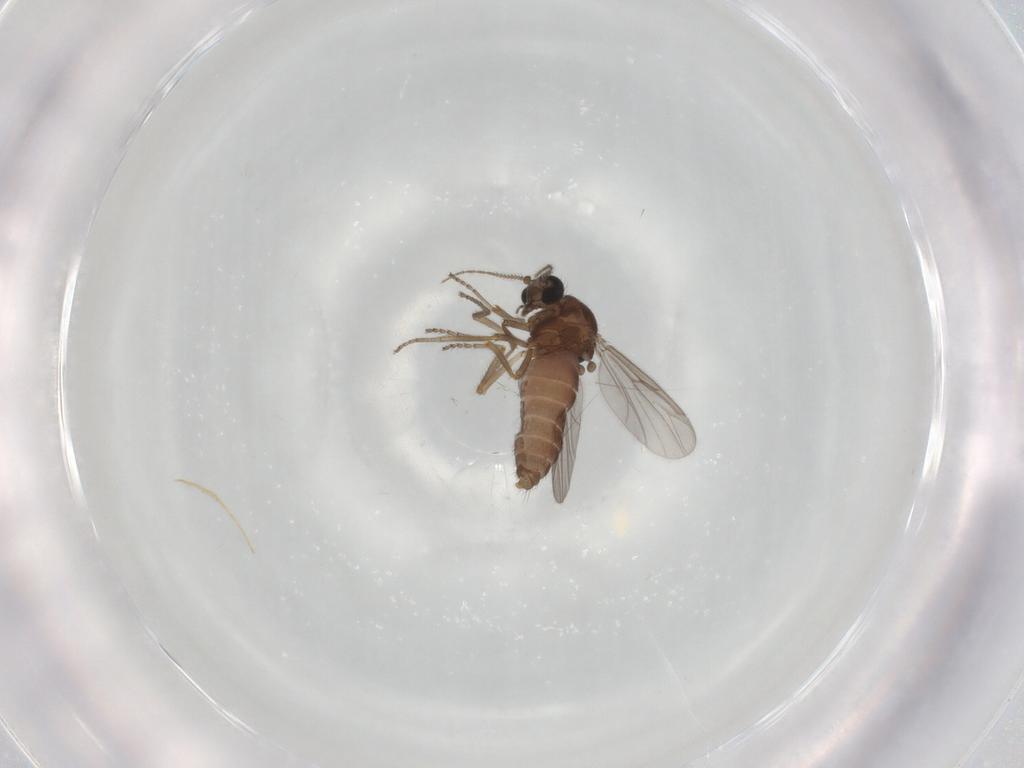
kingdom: Animalia
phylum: Arthropoda
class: Insecta
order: Diptera
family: Ceratopogonidae
